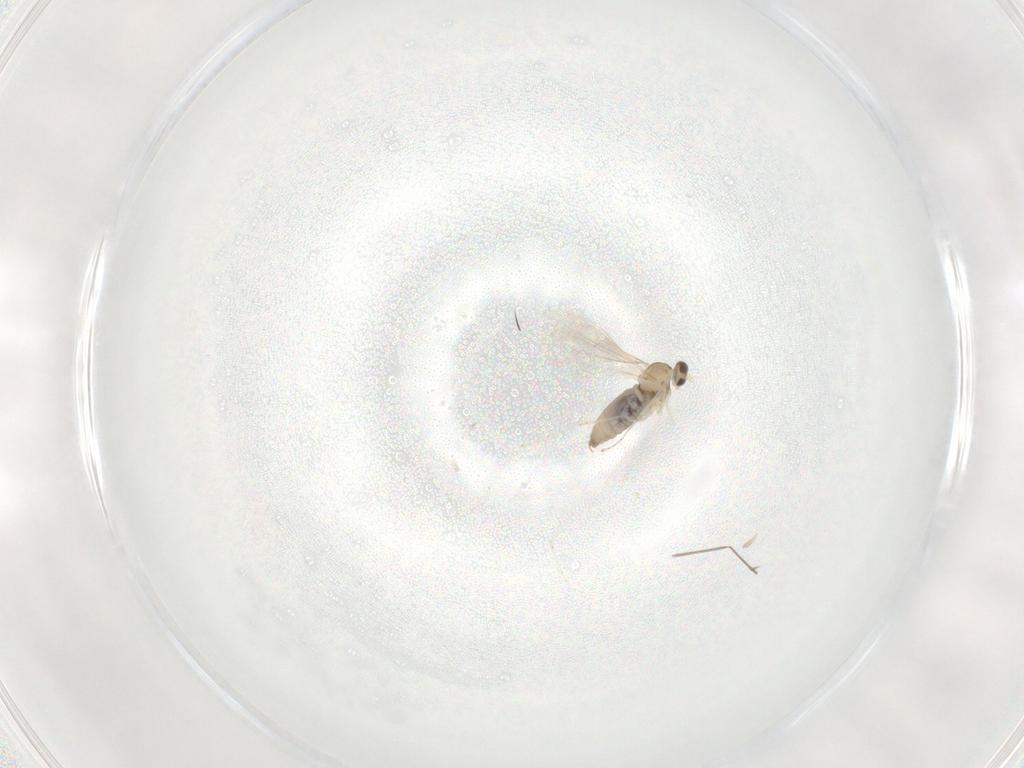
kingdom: Animalia
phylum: Arthropoda
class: Insecta
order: Diptera
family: Cecidomyiidae
